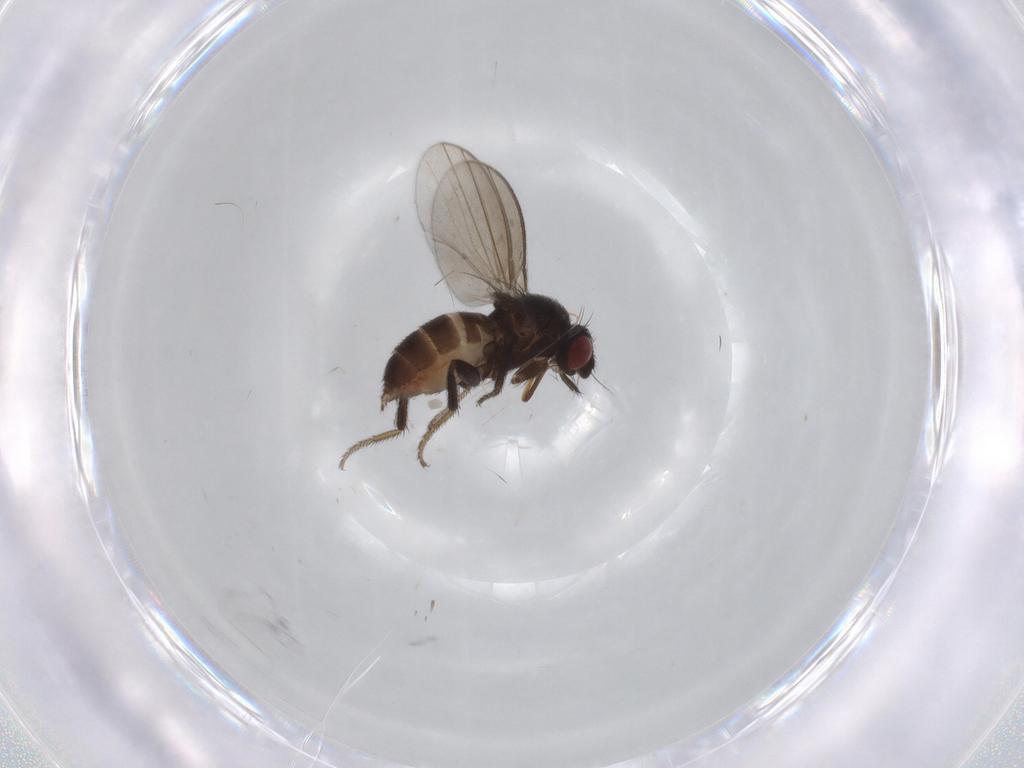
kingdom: Animalia
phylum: Arthropoda
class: Insecta
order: Diptera
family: Milichiidae
